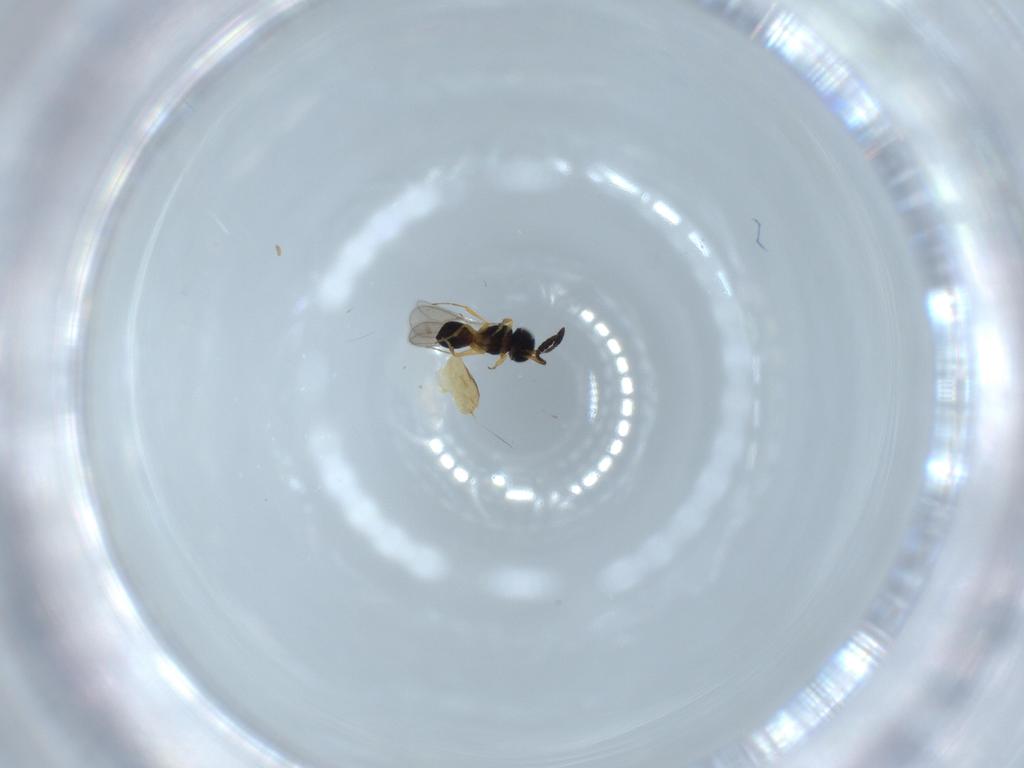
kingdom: Animalia
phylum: Arthropoda
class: Insecta
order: Hymenoptera
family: Scelionidae
